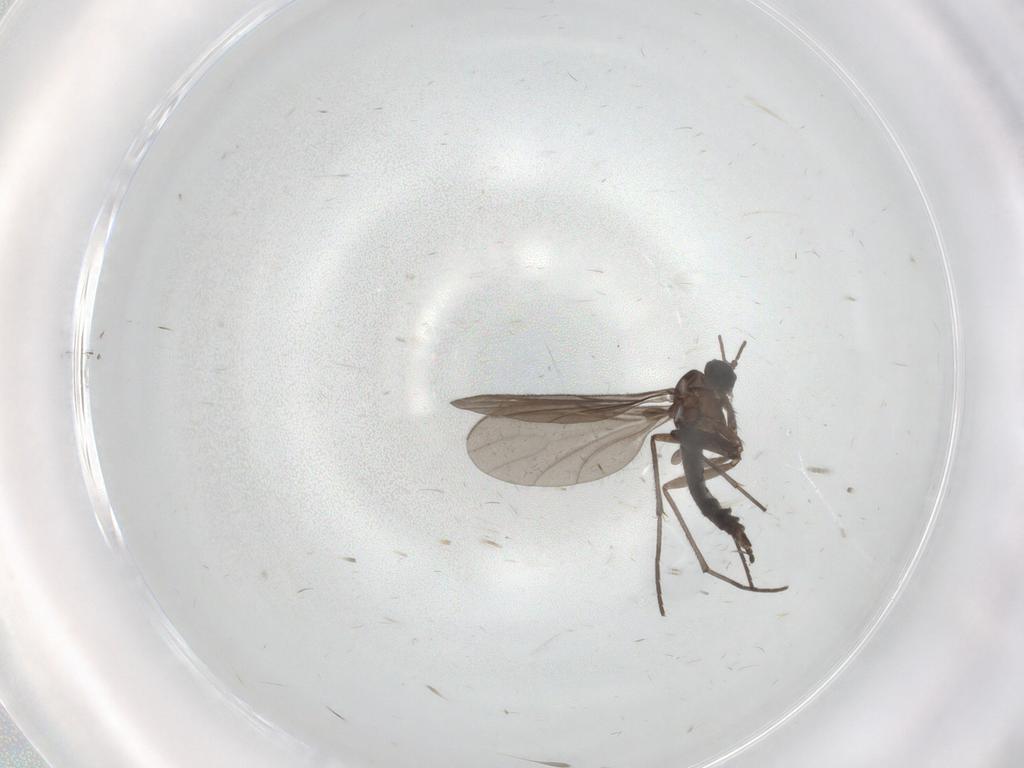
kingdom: Animalia
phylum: Arthropoda
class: Insecta
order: Diptera
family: Sciaridae
